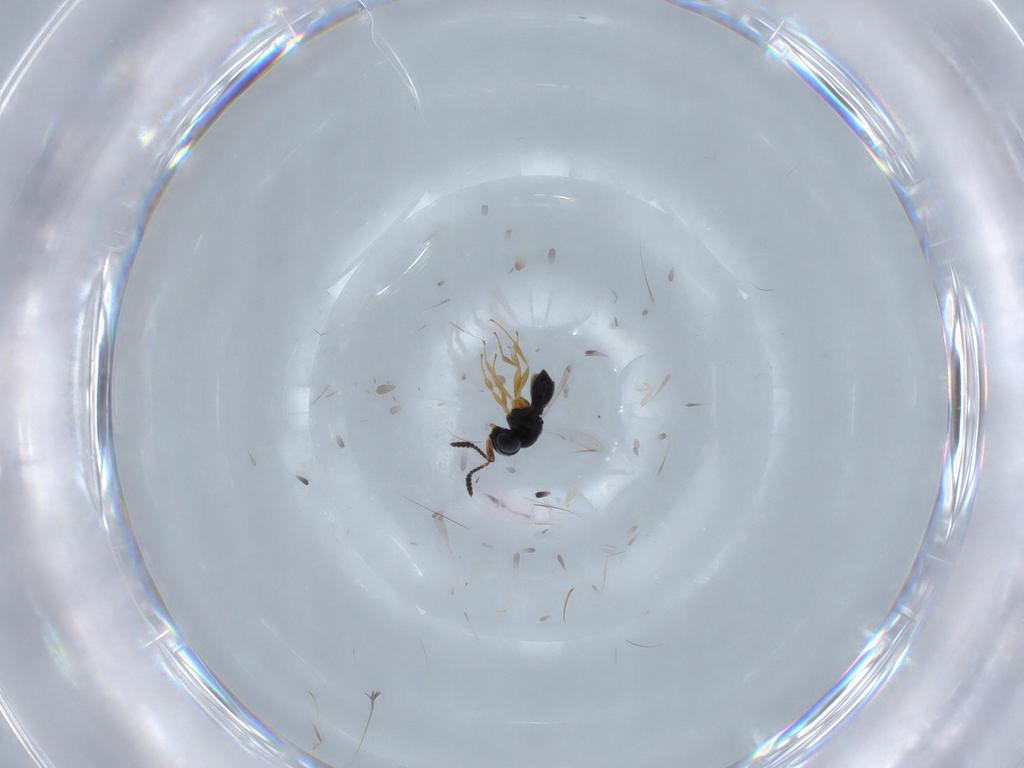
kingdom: Animalia
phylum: Arthropoda
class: Insecta
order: Hymenoptera
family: Scelionidae
